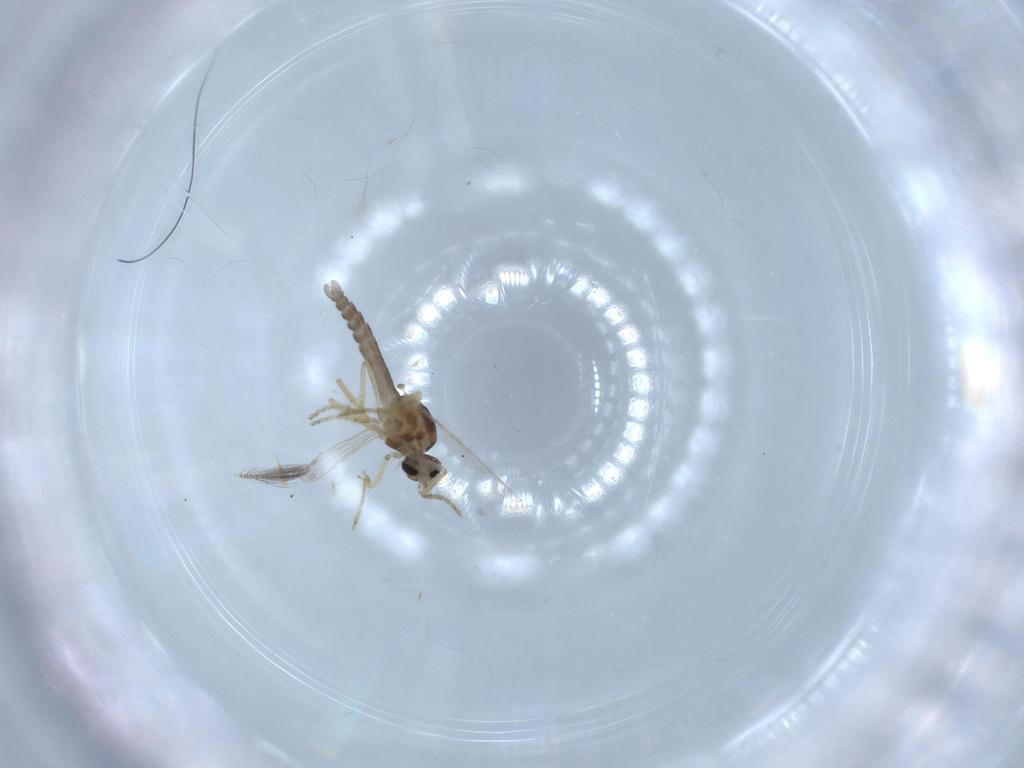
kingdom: Animalia
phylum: Arthropoda
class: Insecta
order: Diptera
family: Ceratopogonidae
